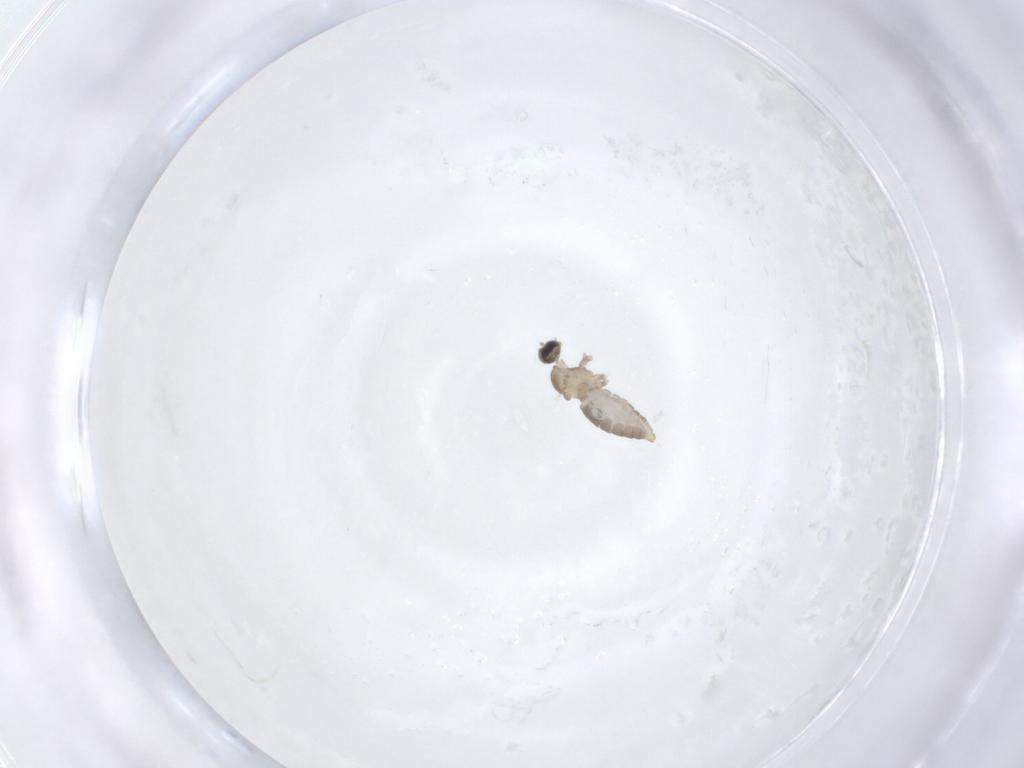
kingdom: Animalia
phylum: Arthropoda
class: Insecta
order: Diptera
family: Cecidomyiidae
